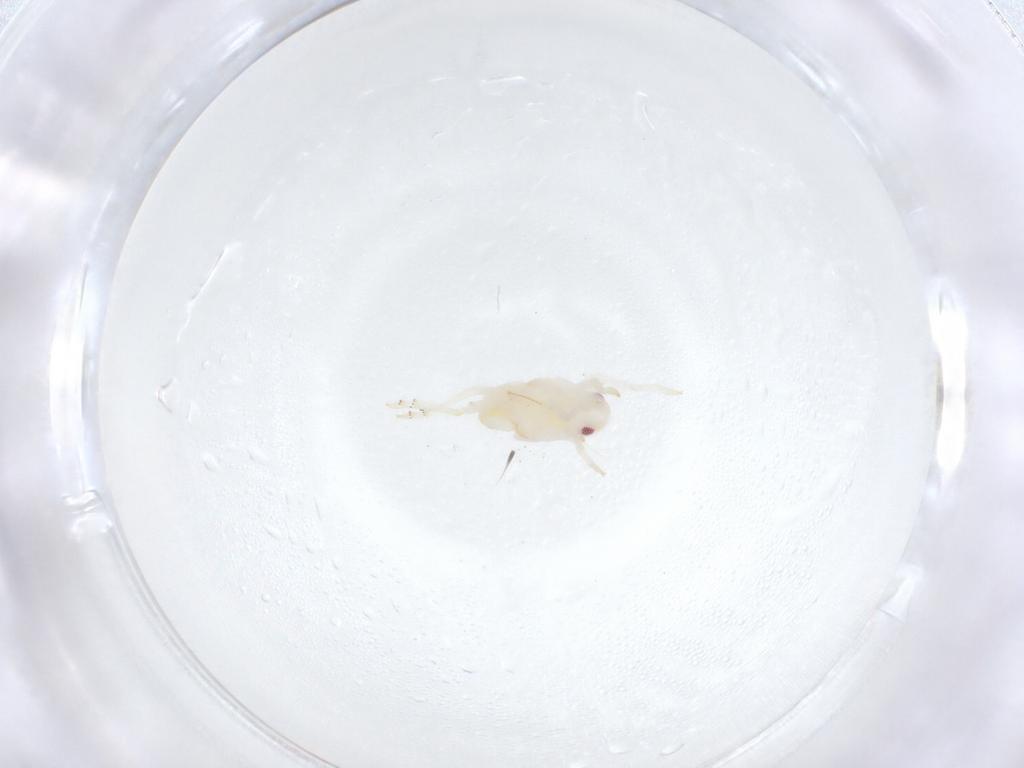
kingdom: Animalia
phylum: Arthropoda
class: Insecta
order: Hemiptera
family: Flatidae
